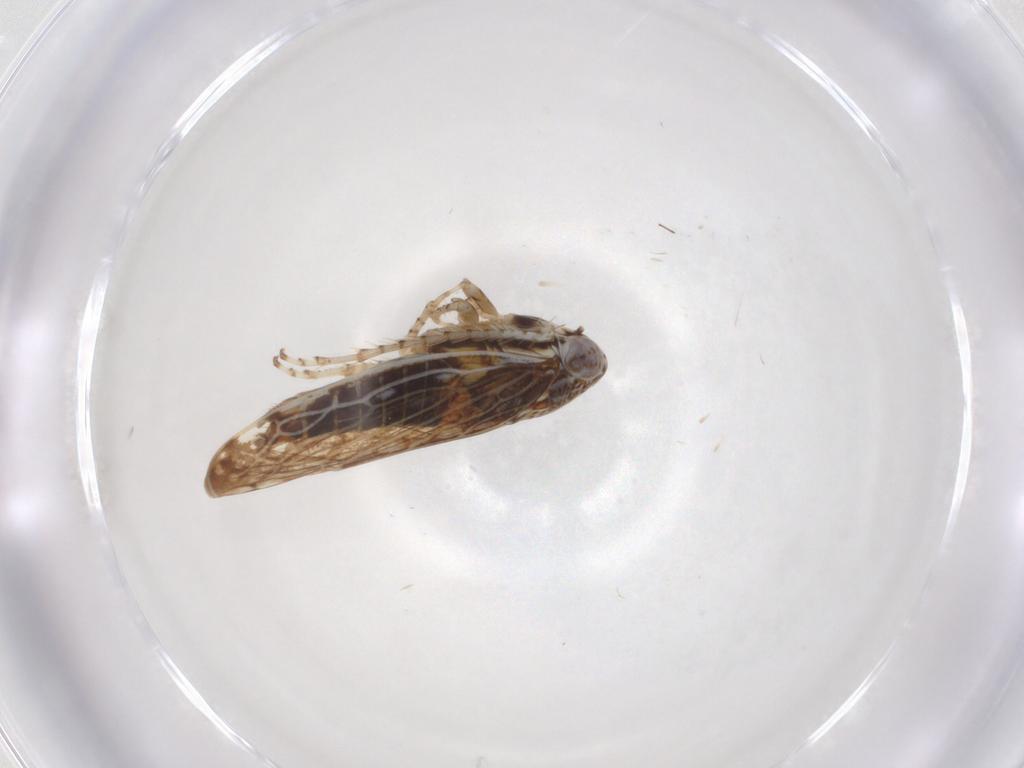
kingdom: Animalia
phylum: Arthropoda
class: Insecta
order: Hemiptera
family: Cicadellidae
